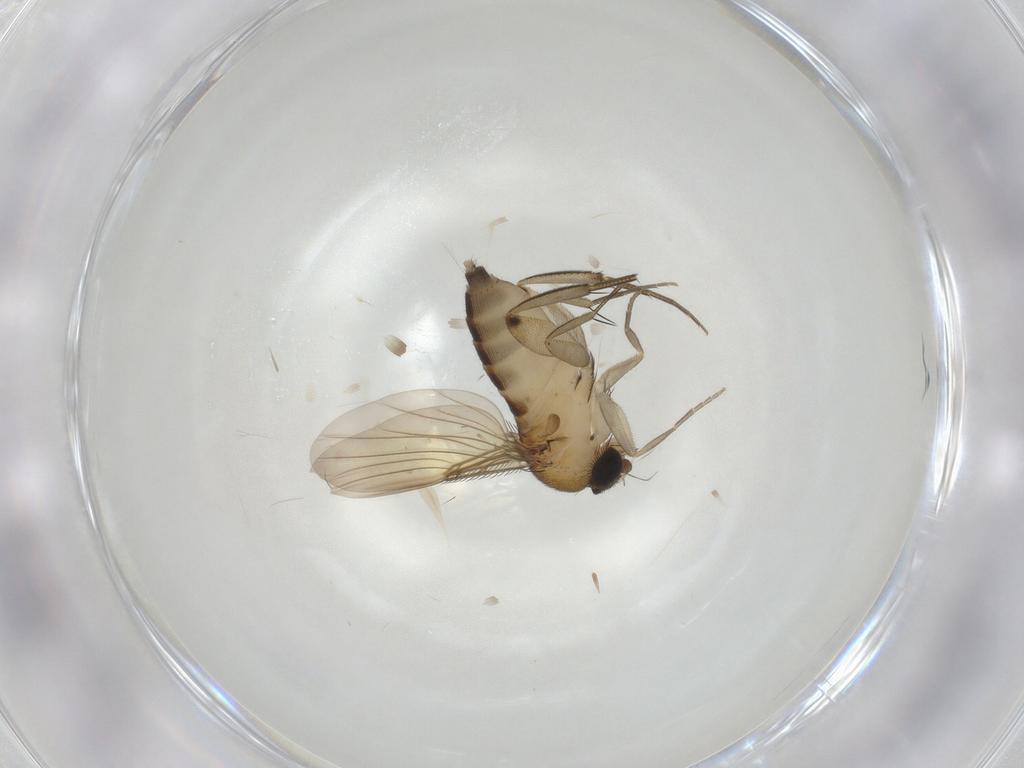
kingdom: Animalia
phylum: Arthropoda
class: Insecta
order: Diptera
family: Phoridae
